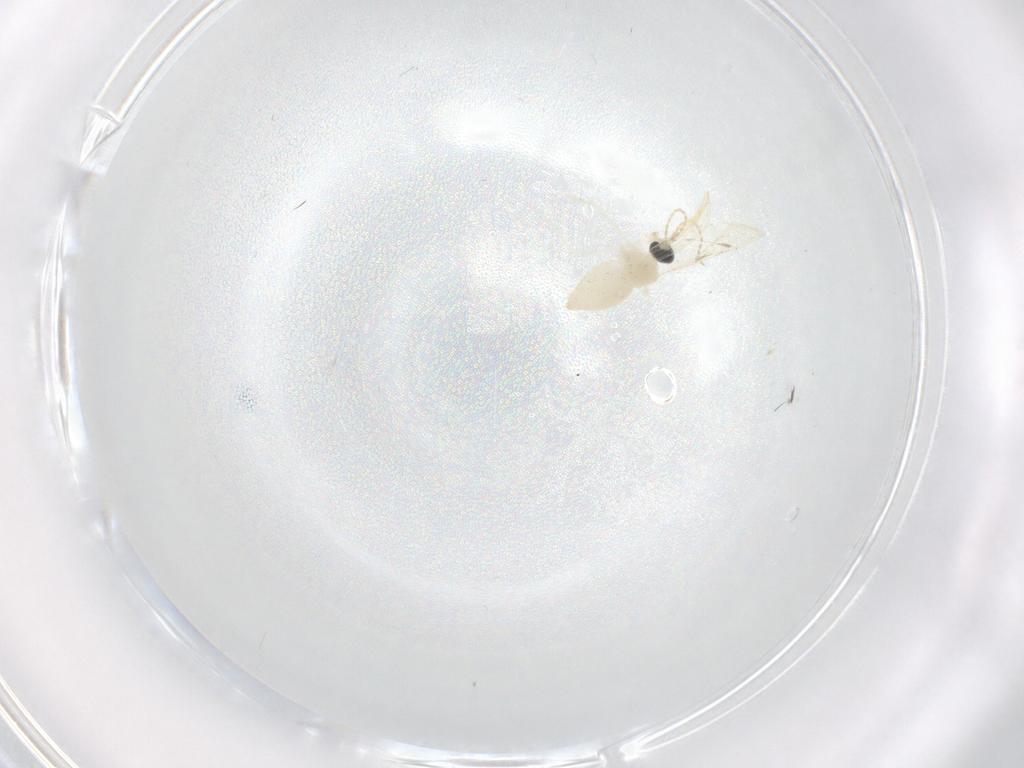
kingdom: Animalia
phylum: Arthropoda
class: Insecta
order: Diptera
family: Cecidomyiidae
